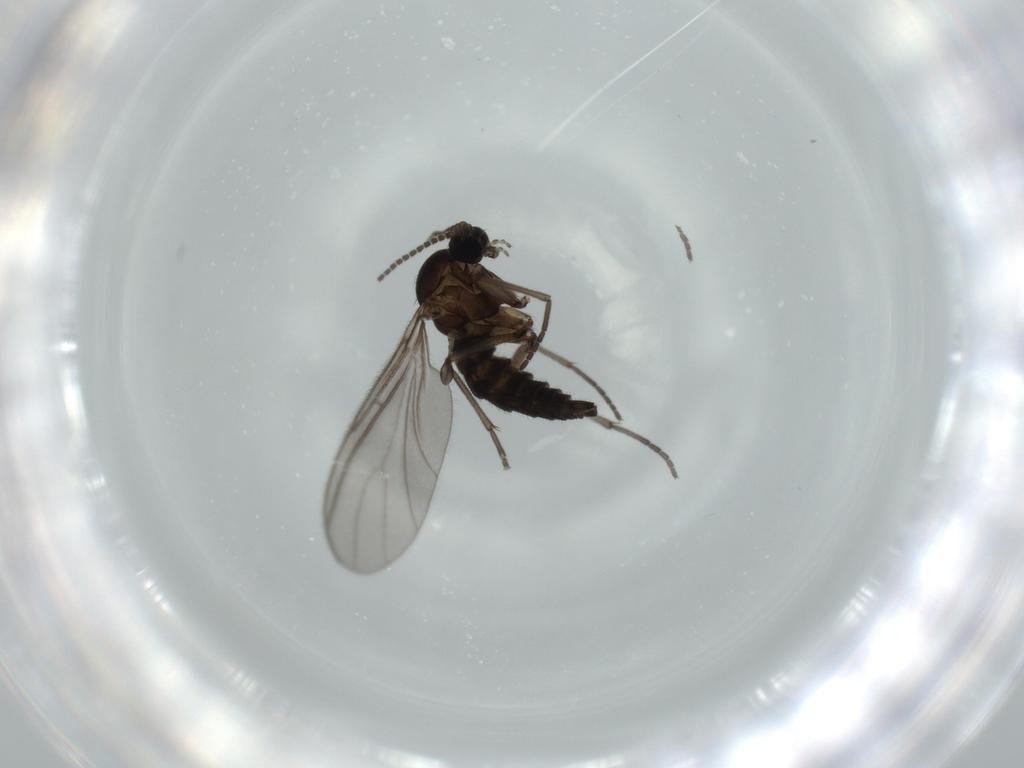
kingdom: Animalia
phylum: Arthropoda
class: Insecta
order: Diptera
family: Sciaridae
